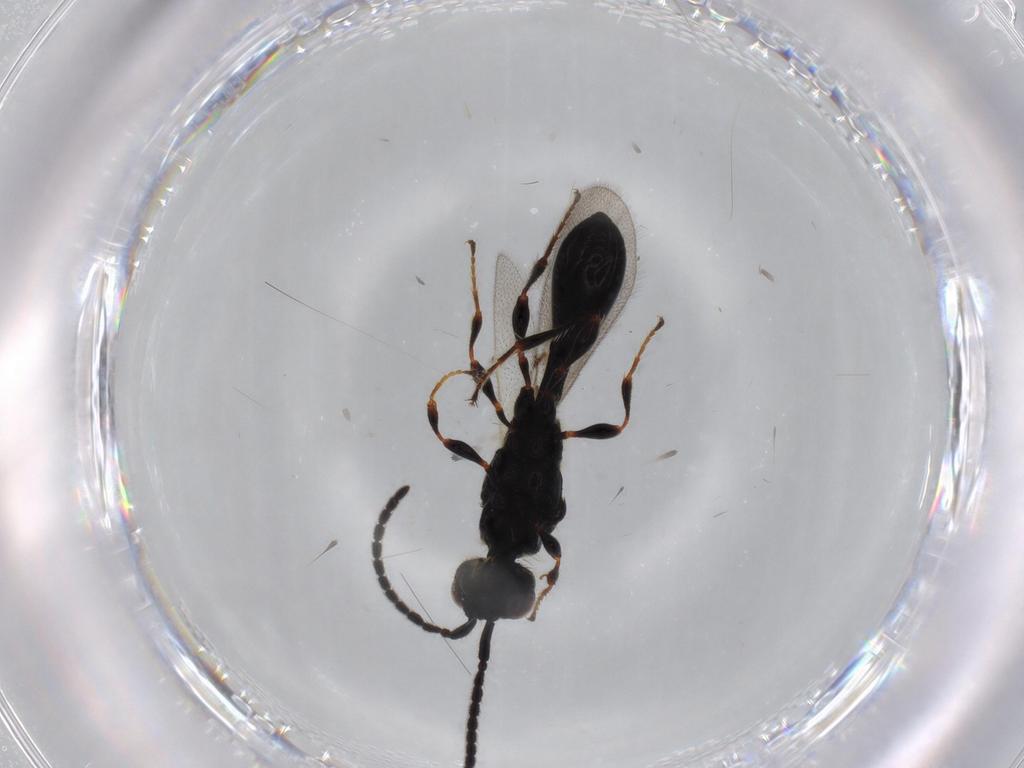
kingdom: Animalia
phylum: Arthropoda
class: Insecta
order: Hymenoptera
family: Diapriidae
